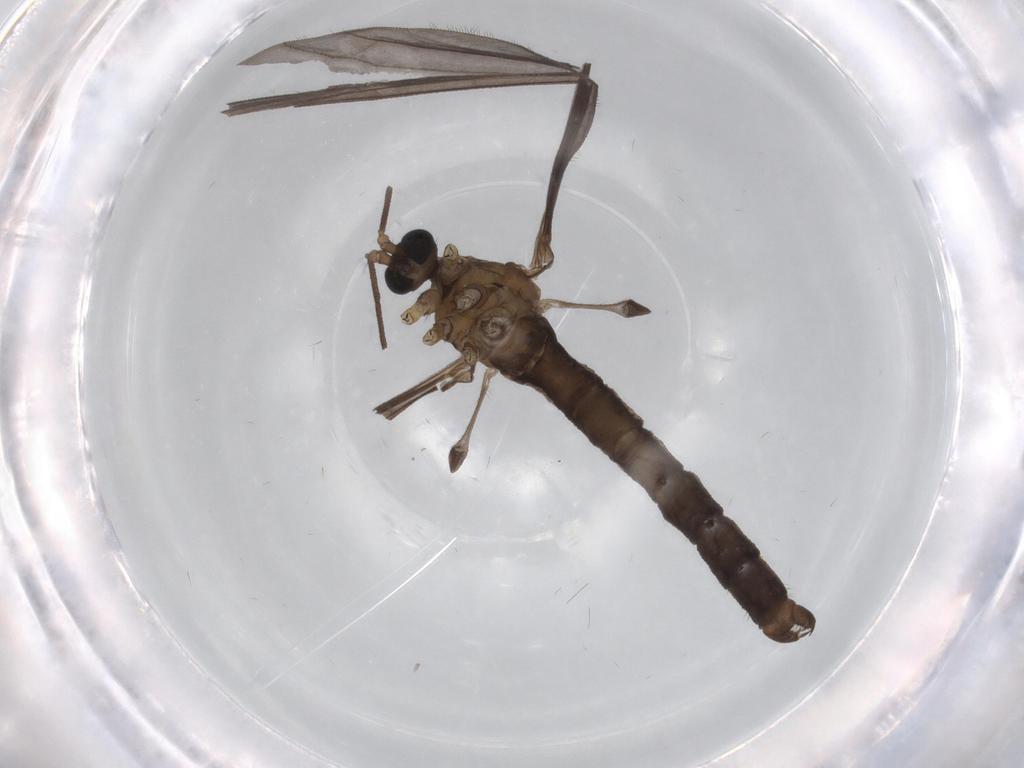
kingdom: Animalia
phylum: Arthropoda
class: Insecta
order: Diptera
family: Limoniidae
